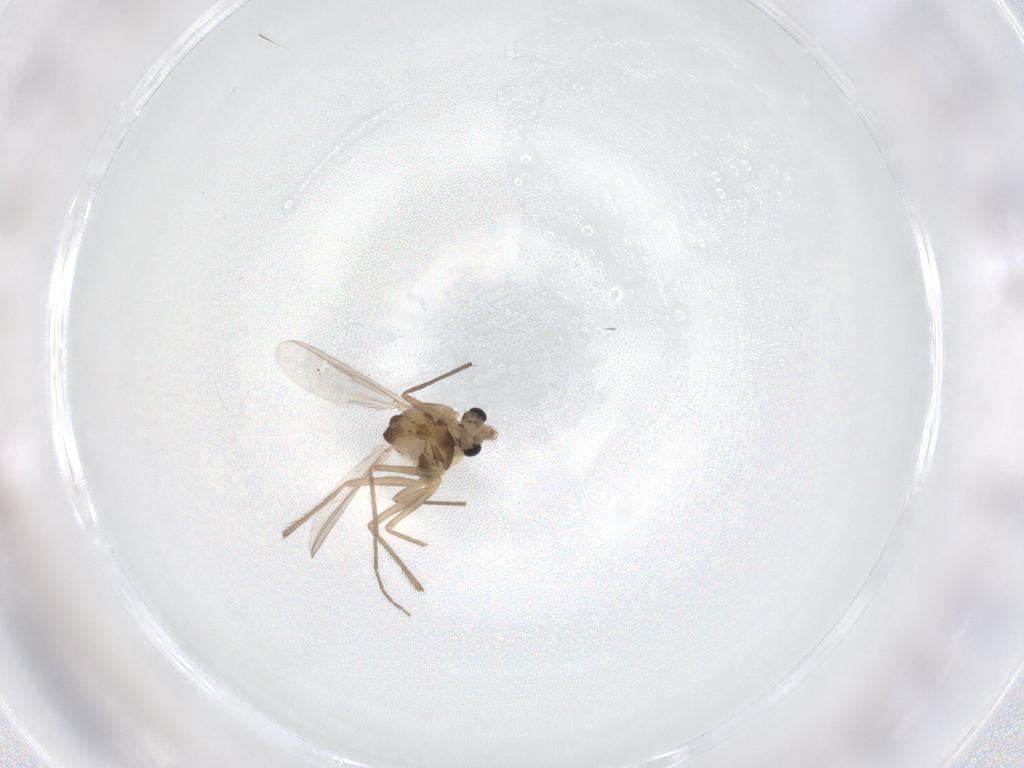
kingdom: Animalia
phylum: Arthropoda
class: Insecta
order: Diptera
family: Chironomidae
